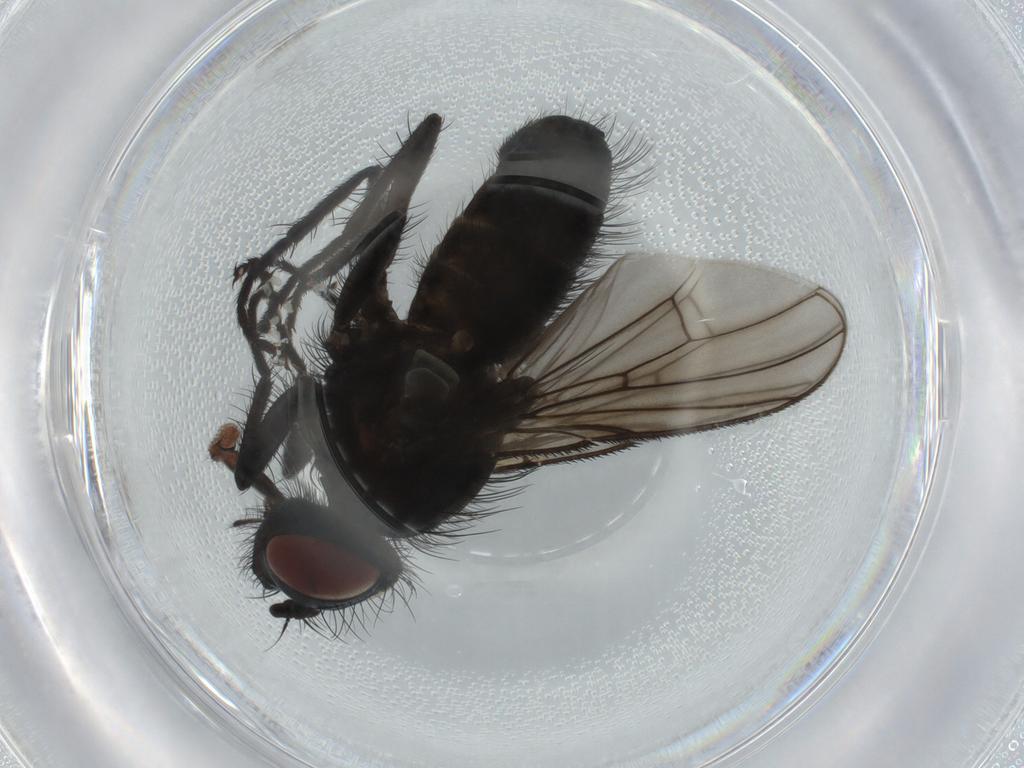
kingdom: Animalia
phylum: Arthropoda
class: Insecta
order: Diptera
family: Muscidae
